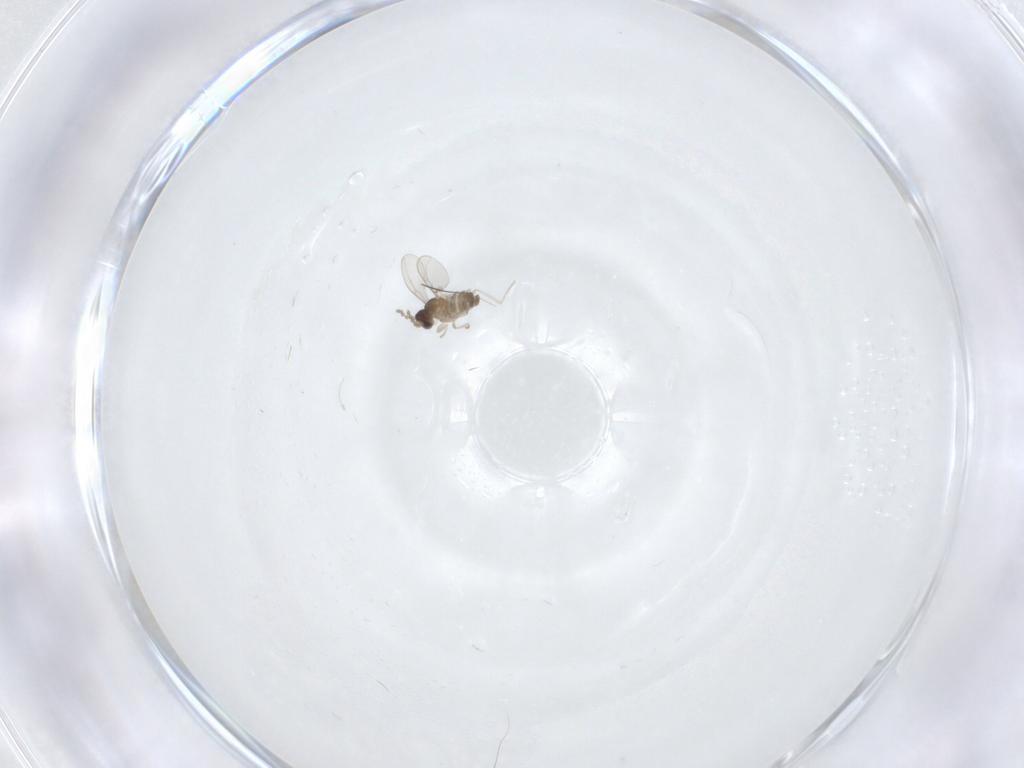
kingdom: Animalia
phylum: Arthropoda
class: Insecta
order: Diptera
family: Cecidomyiidae
